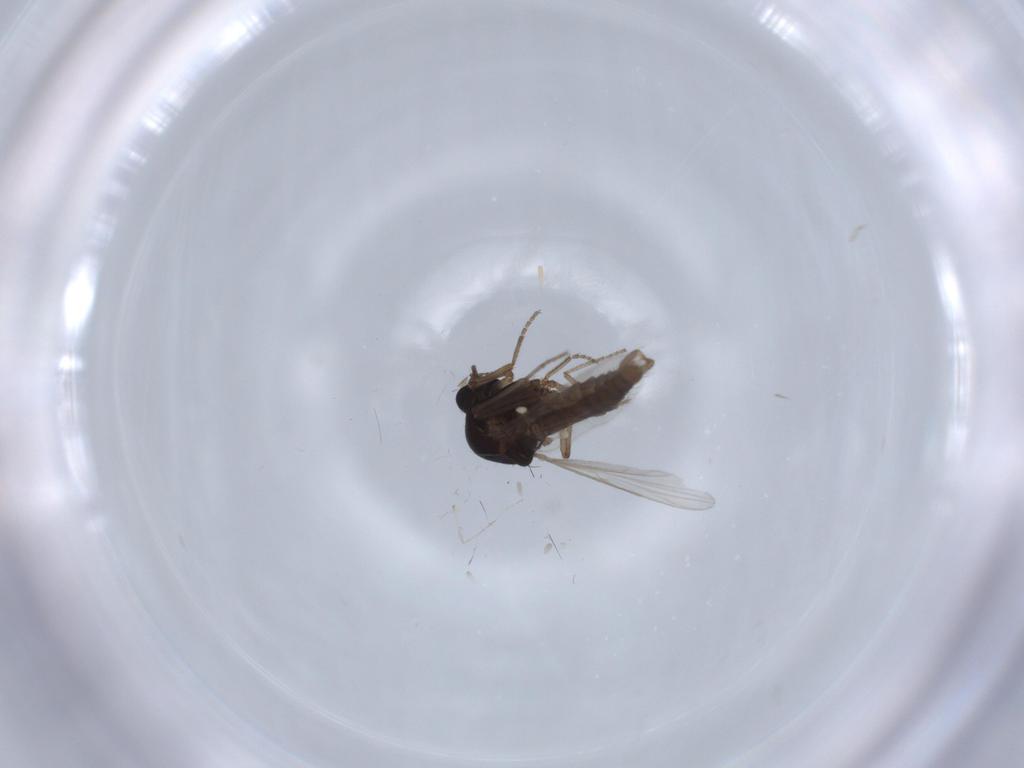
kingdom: Animalia
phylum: Arthropoda
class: Insecta
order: Diptera
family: Ceratopogonidae
